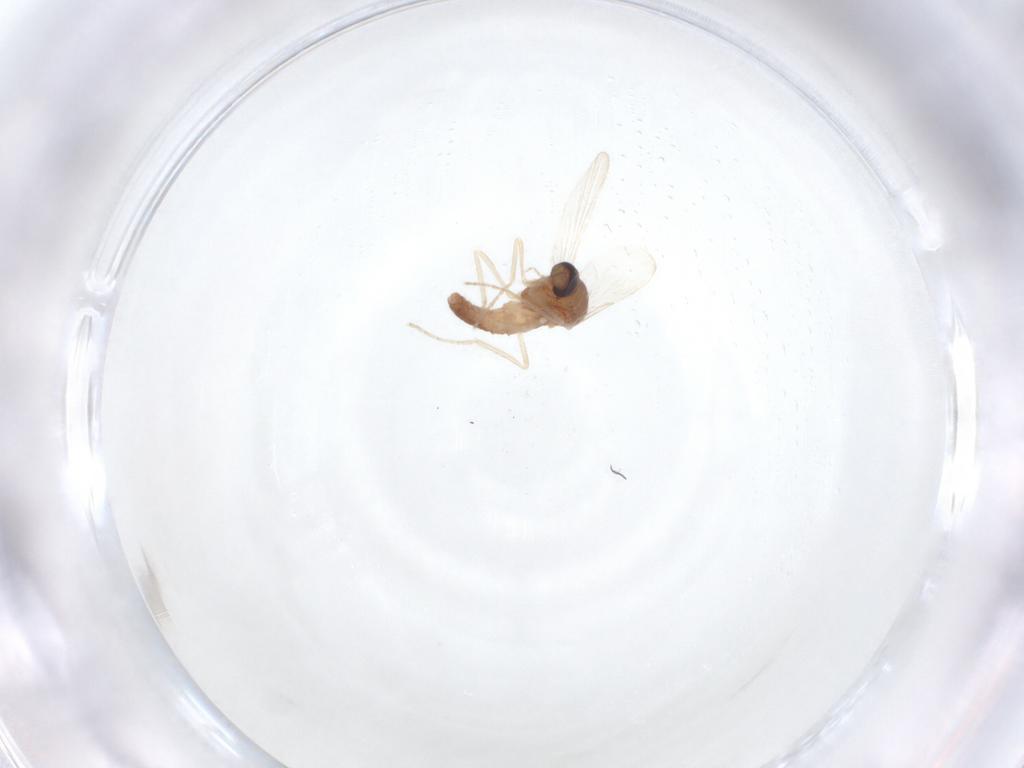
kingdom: Animalia
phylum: Arthropoda
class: Insecta
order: Diptera
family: Ceratopogonidae
